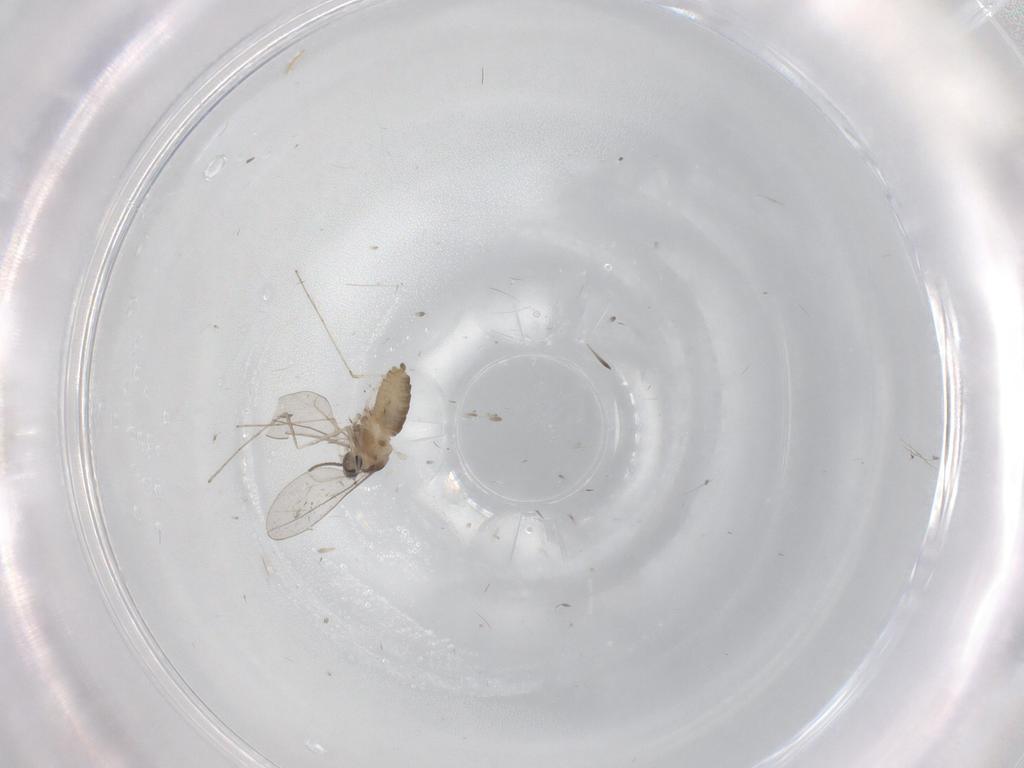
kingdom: Animalia
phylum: Arthropoda
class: Insecta
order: Diptera
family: Cecidomyiidae
